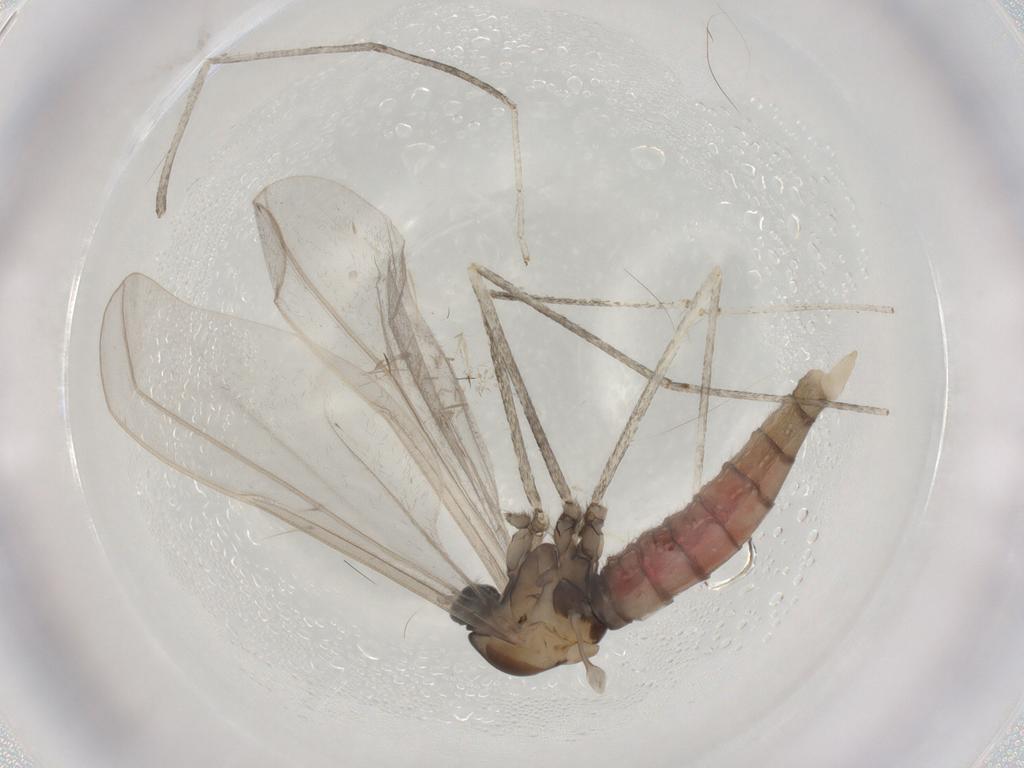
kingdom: Animalia
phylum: Arthropoda
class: Insecta
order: Diptera
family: Cecidomyiidae
